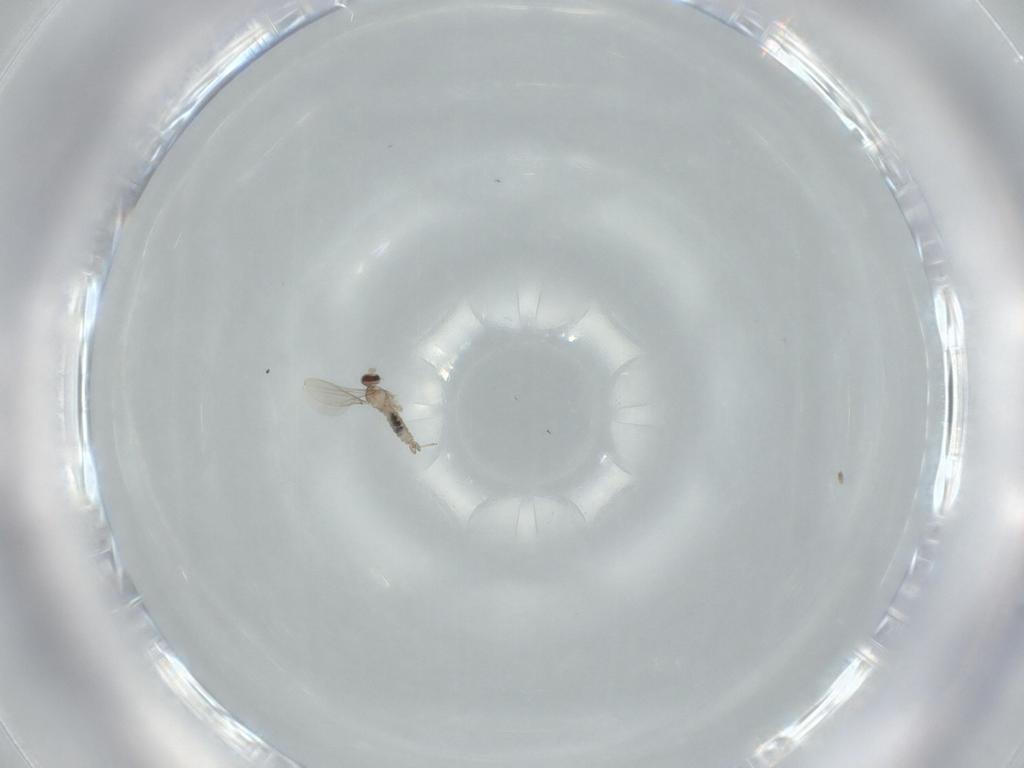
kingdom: Animalia
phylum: Arthropoda
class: Insecta
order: Diptera
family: Cecidomyiidae
